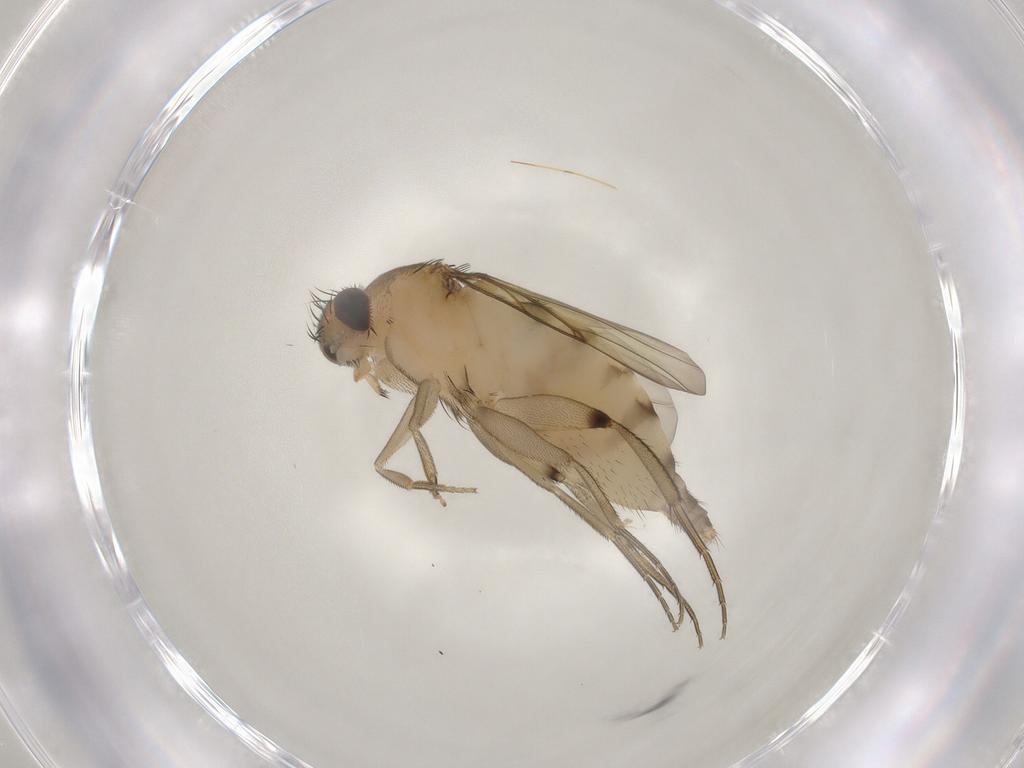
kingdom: Animalia
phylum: Arthropoda
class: Insecta
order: Diptera
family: Phoridae
